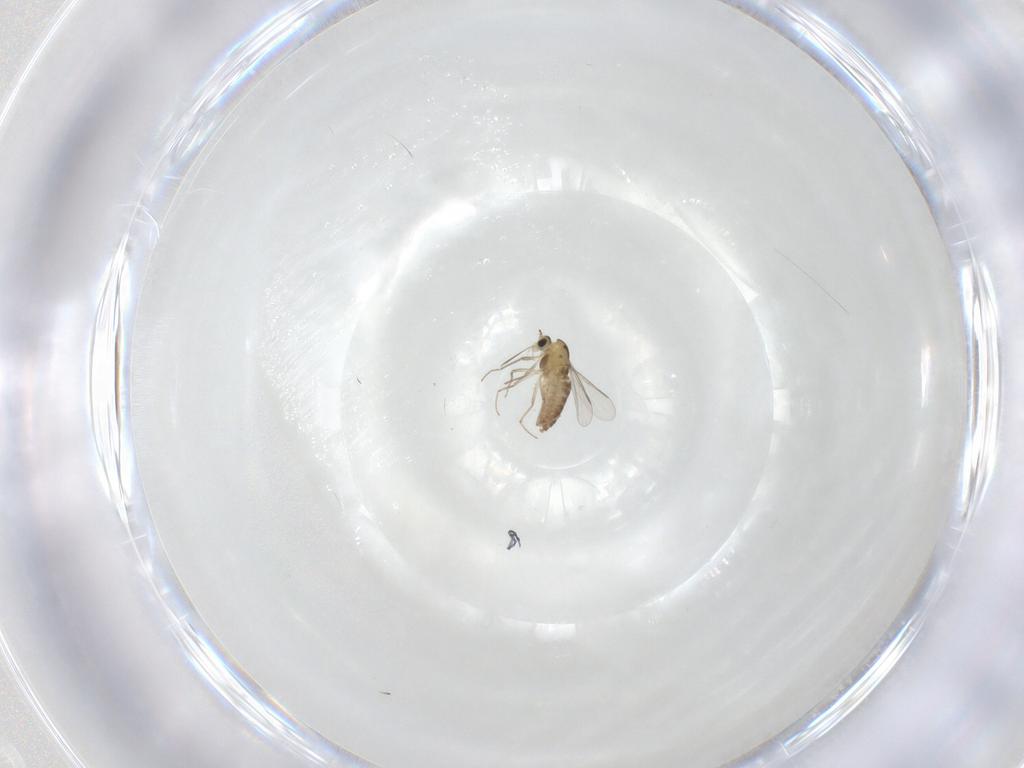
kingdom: Animalia
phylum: Arthropoda
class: Insecta
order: Diptera
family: Chironomidae
